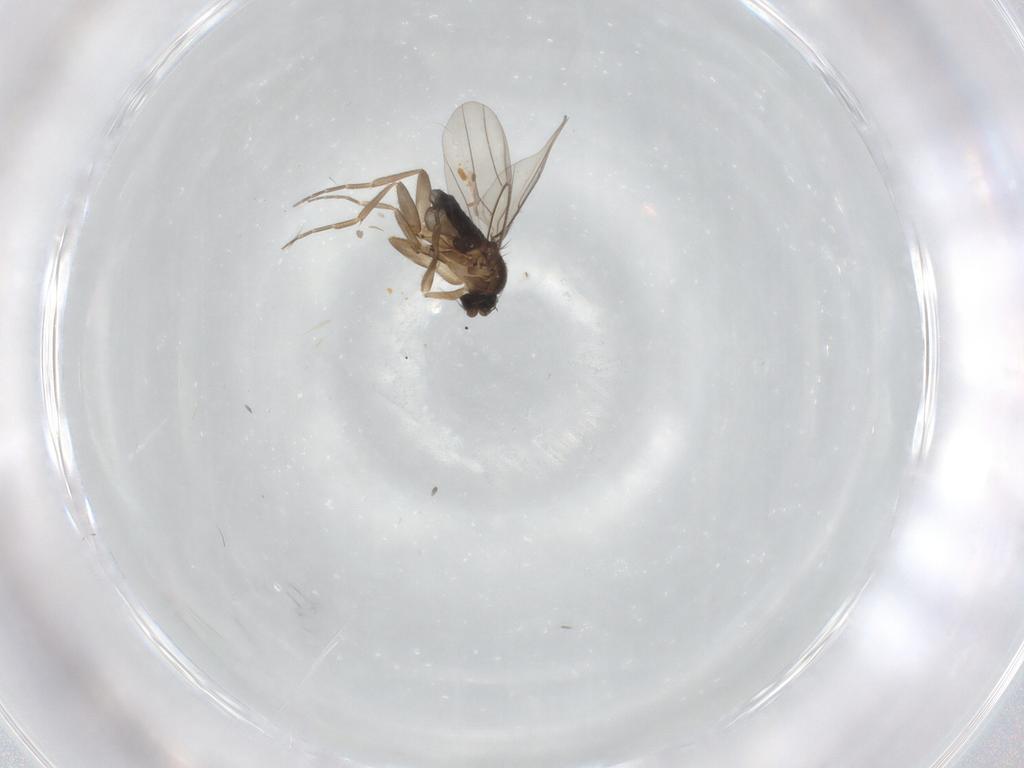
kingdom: Animalia
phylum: Arthropoda
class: Insecta
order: Diptera
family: Phoridae
